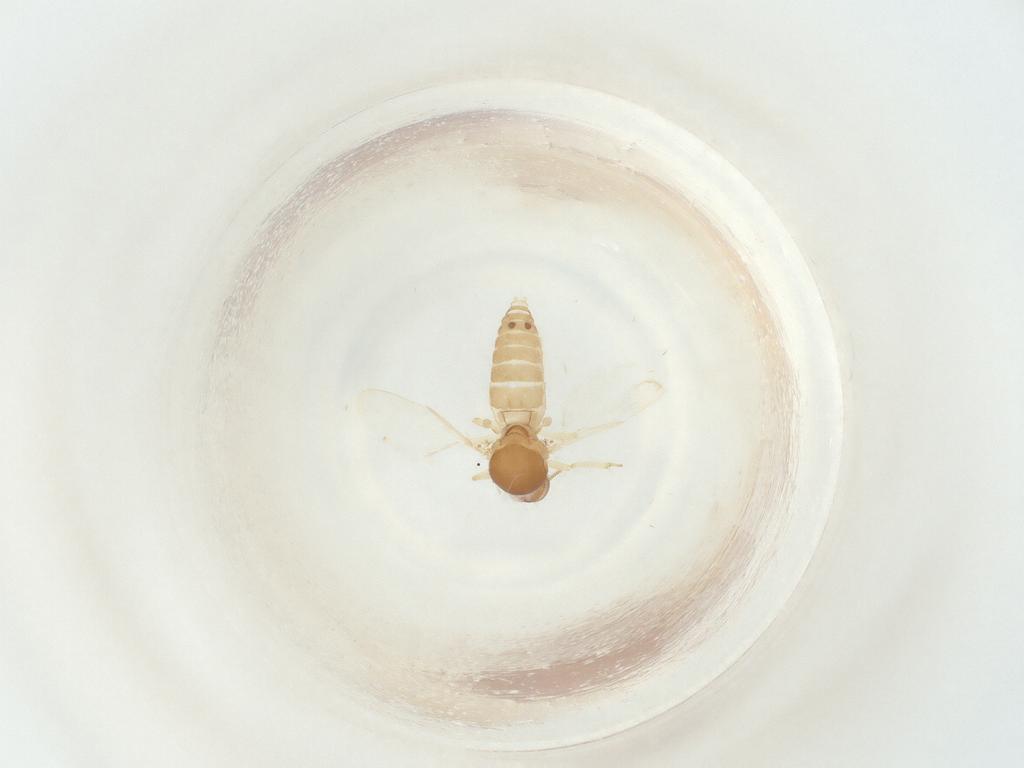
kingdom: Animalia
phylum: Arthropoda
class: Insecta
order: Diptera
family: Ceratopogonidae
